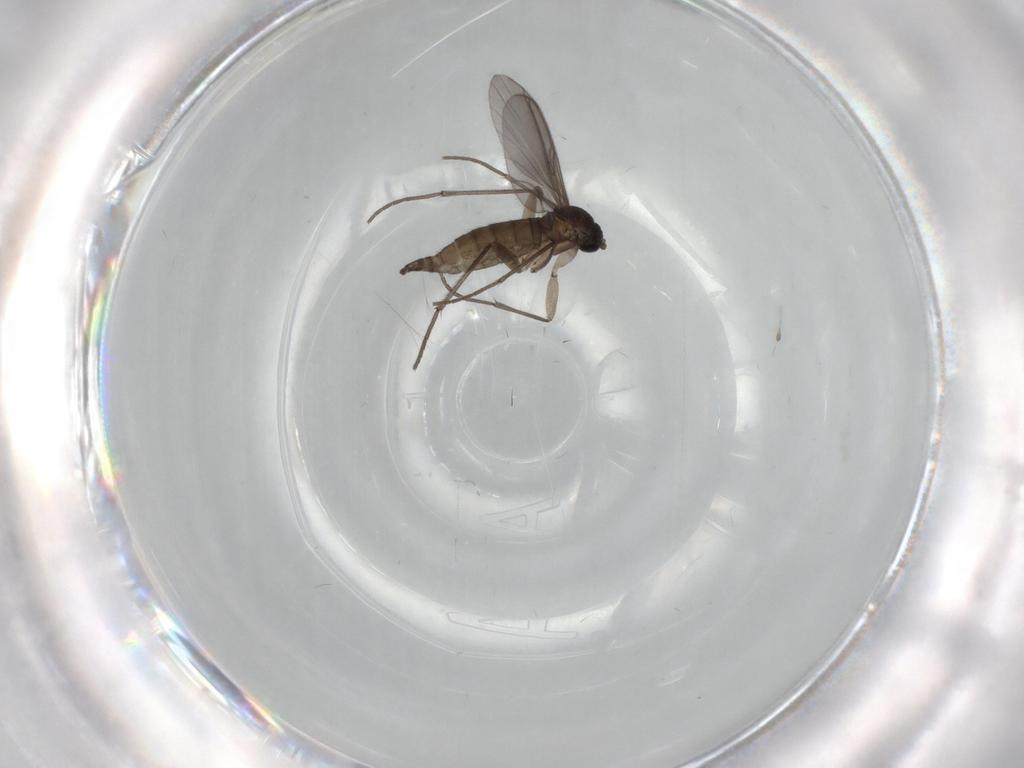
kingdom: Animalia
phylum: Arthropoda
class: Insecta
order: Diptera
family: Sciaridae
